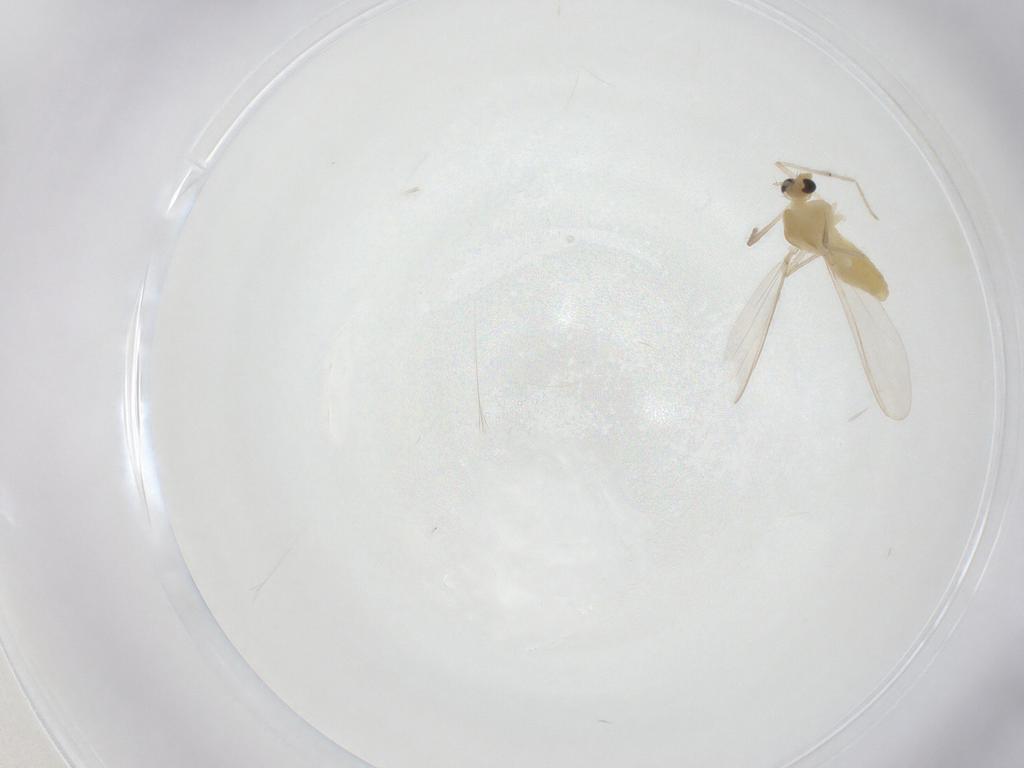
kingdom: Animalia
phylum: Arthropoda
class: Insecta
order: Diptera
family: Chironomidae
